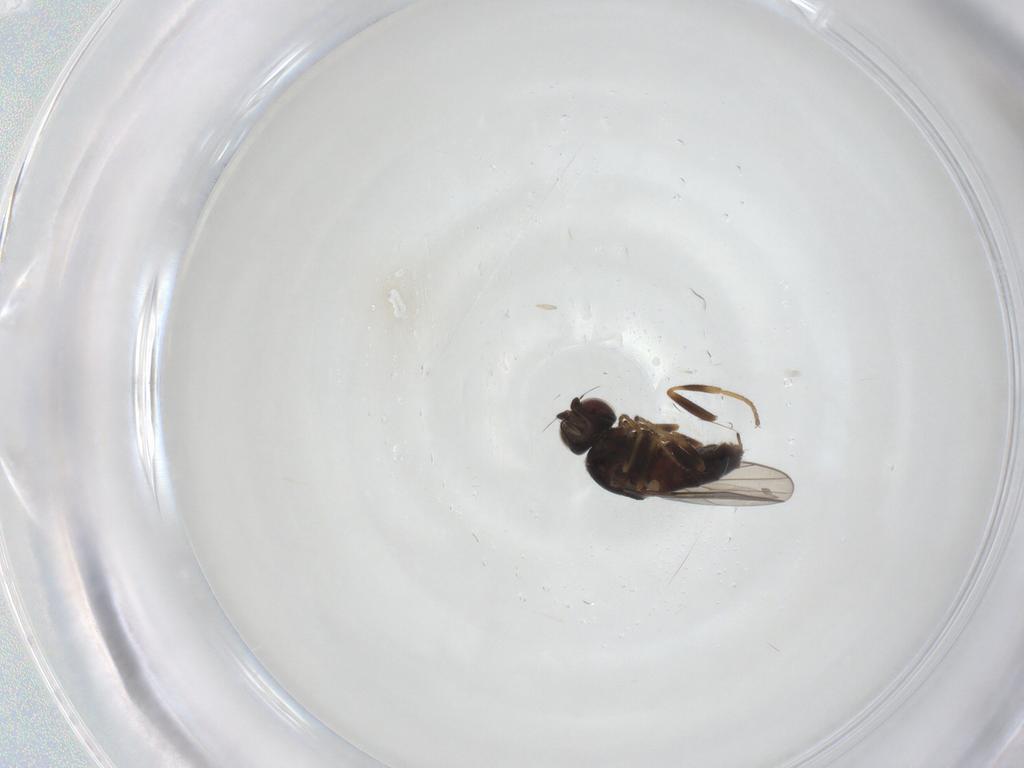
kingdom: Animalia
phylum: Arthropoda
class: Insecta
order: Diptera
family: Chloropidae
